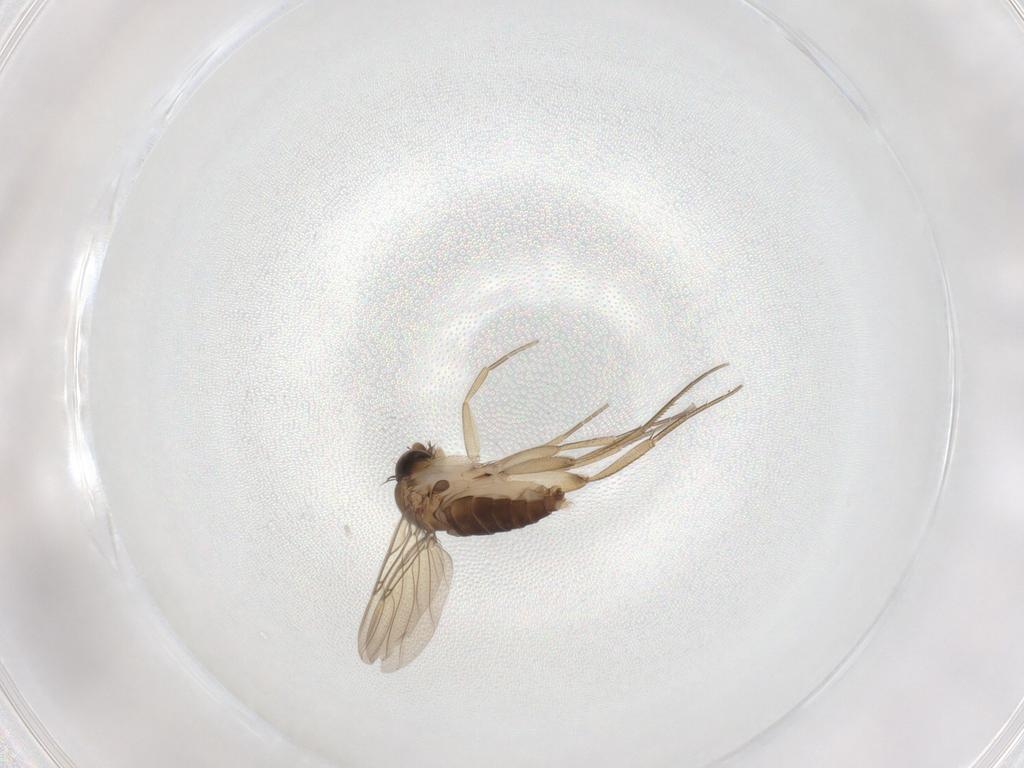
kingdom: Animalia
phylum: Arthropoda
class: Insecta
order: Diptera
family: Phoridae
